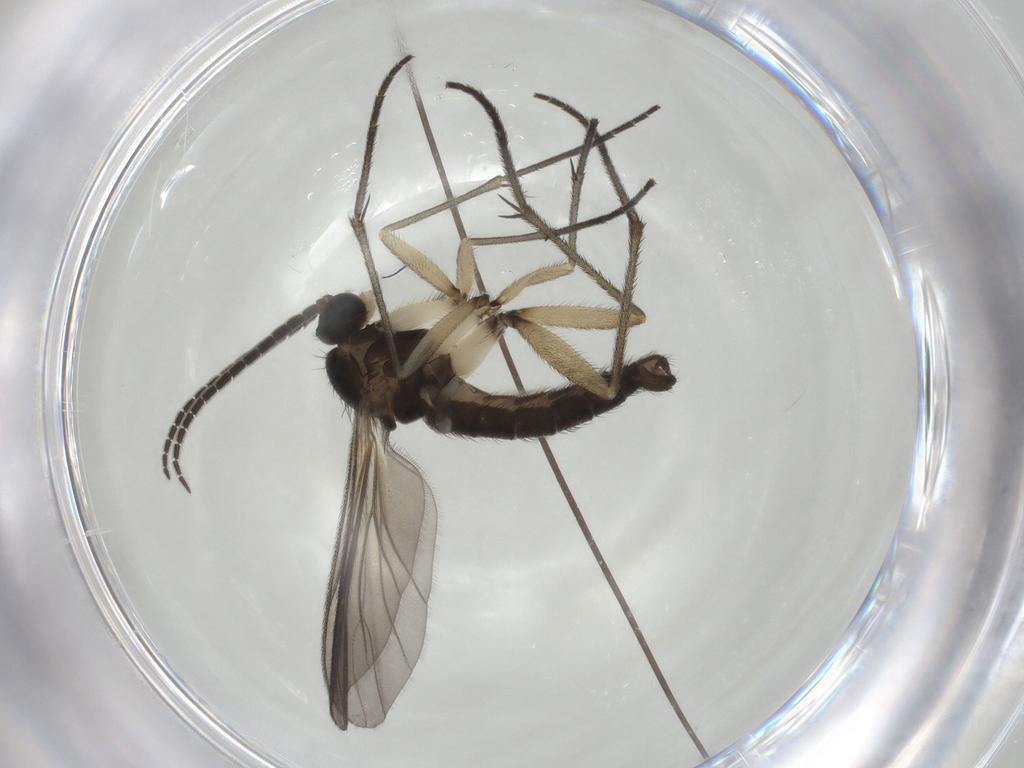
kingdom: Animalia
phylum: Arthropoda
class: Insecta
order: Diptera
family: Sciaridae
